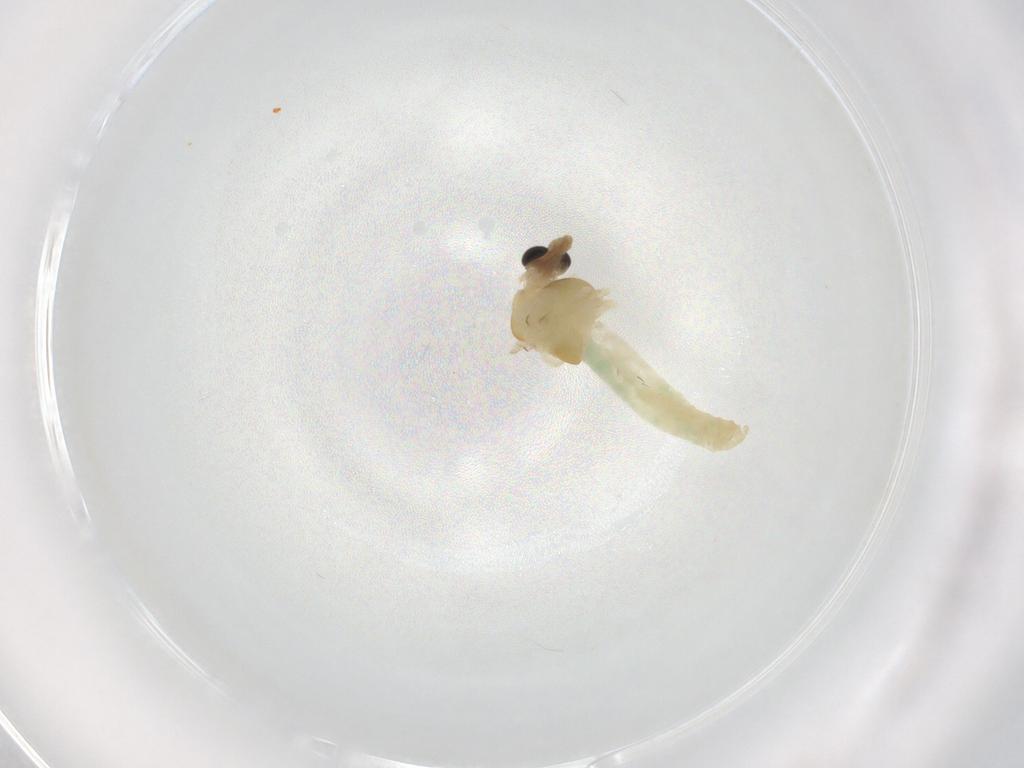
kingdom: Animalia
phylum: Arthropoda
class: Insecta
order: Diptera
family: Chironomidae
